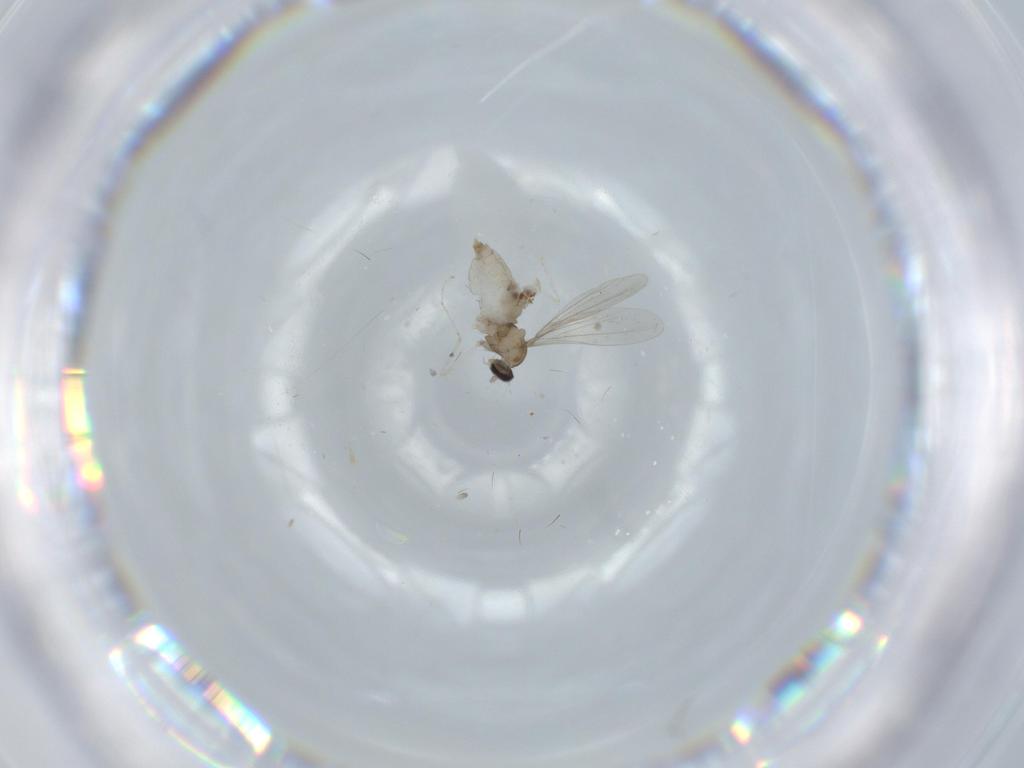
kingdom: Animalia
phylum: Arthropoda
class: Insecta
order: Diptera
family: Cecidomyiidae
